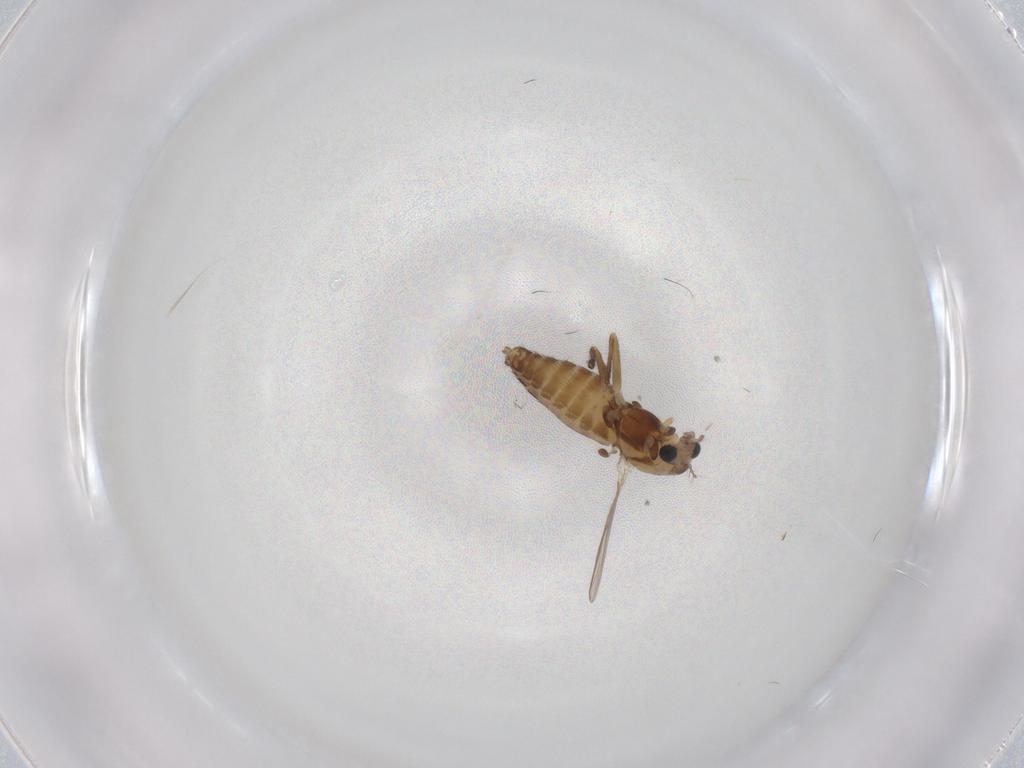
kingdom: Animalia
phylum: Arthropoda
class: Insecta
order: Diptera
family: Chironomidae
